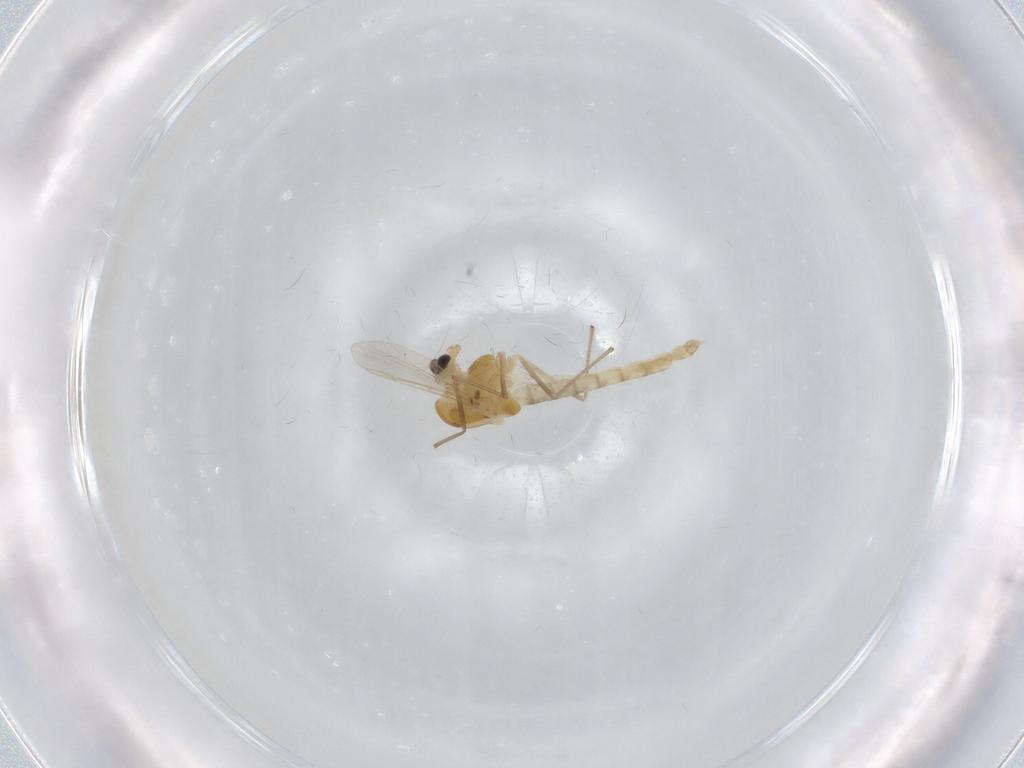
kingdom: Animalia
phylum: Arthropoda
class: Insecta
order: Diptera
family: Chironomidae
